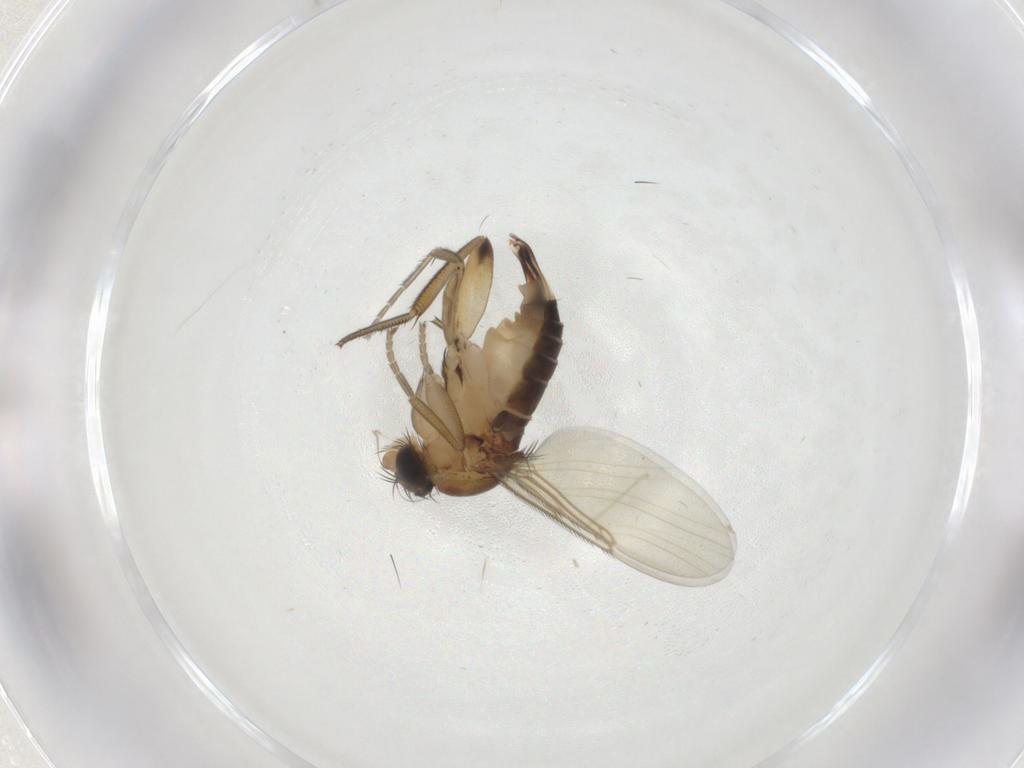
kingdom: Animalia
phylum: Arthropoda
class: Insecta
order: Diptera
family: Phoridae
